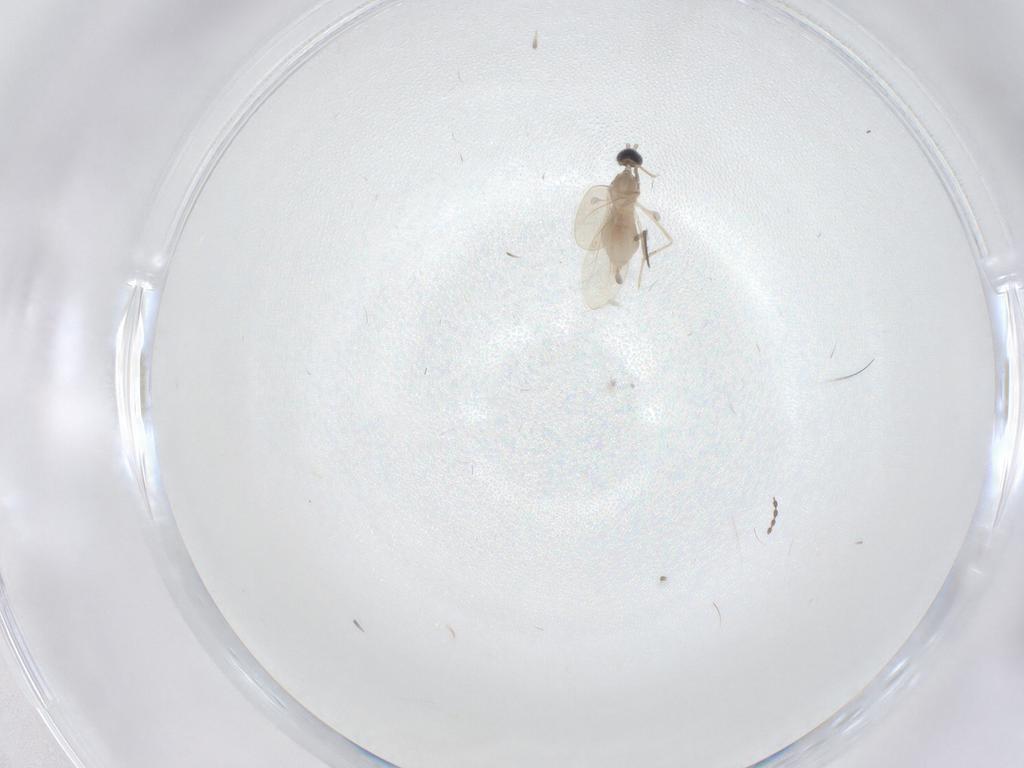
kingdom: Animalia
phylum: Arthropoda
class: Insecta
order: Diptera
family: Cecidomyiidae
